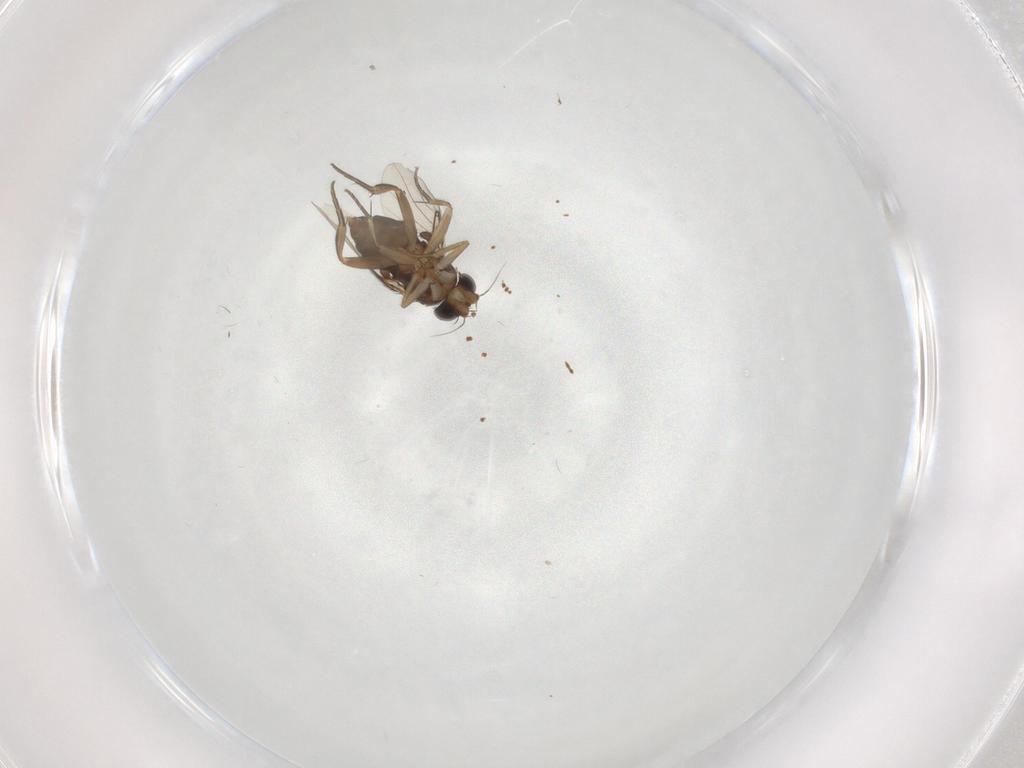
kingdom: Animalia
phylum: Arthropoda
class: Insecta
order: Diptera
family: Phoridae
